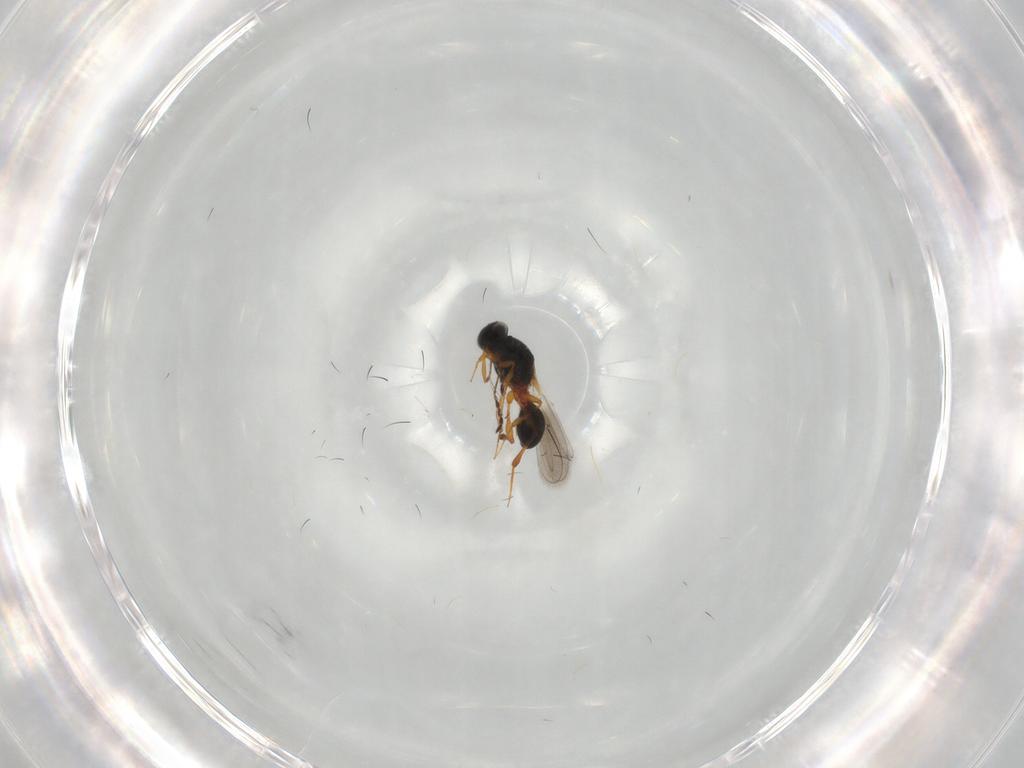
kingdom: Animalia
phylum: Arthropoda
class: Insecta
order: Hymenoptera
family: Platygastridae
